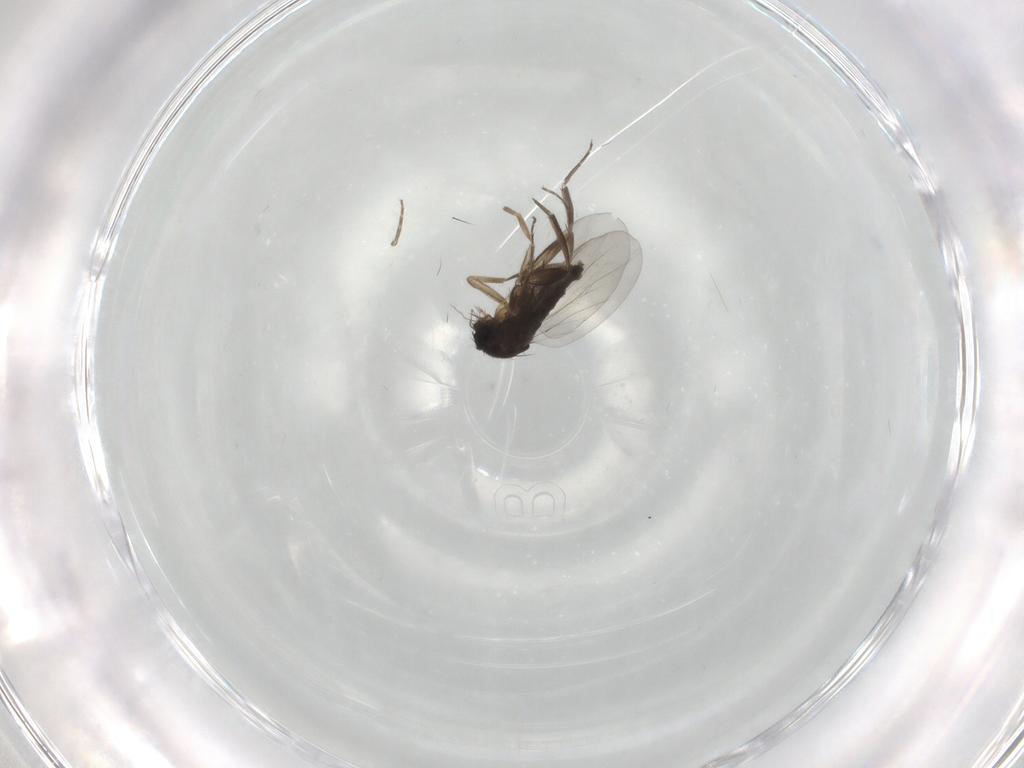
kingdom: Animalia
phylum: Arthropoda
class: Insecta
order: Diptera
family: Phoridae
